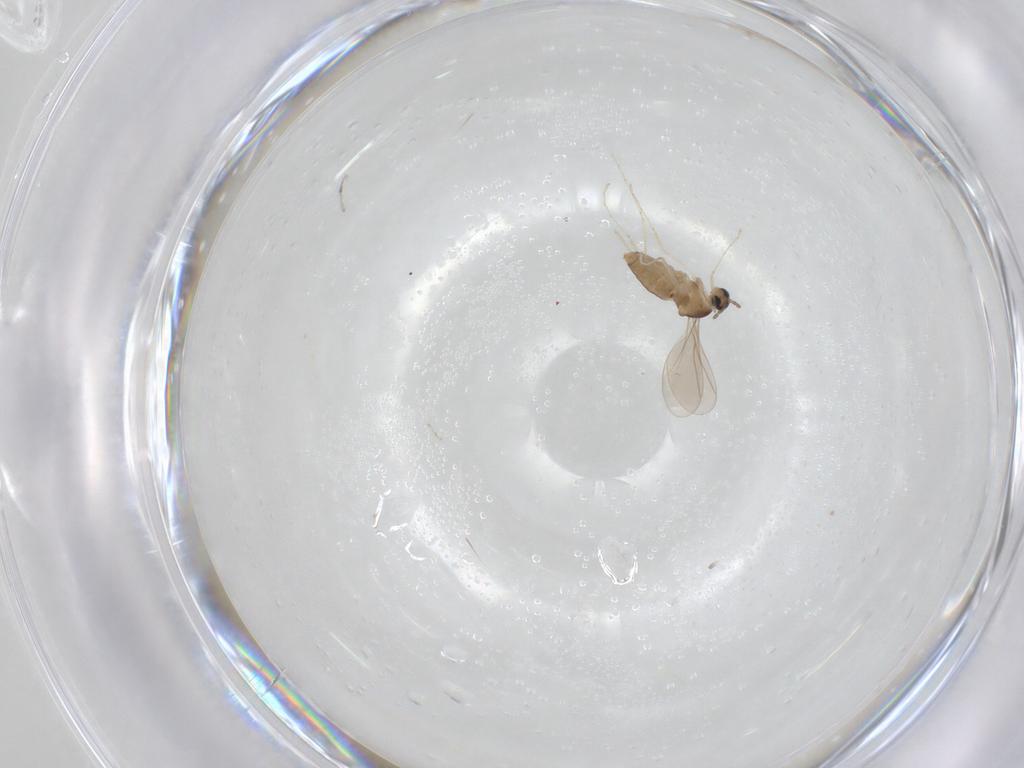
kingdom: Animalia
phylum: Arthropoda
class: Insecta
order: Diptera
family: Cecidomyiidae
